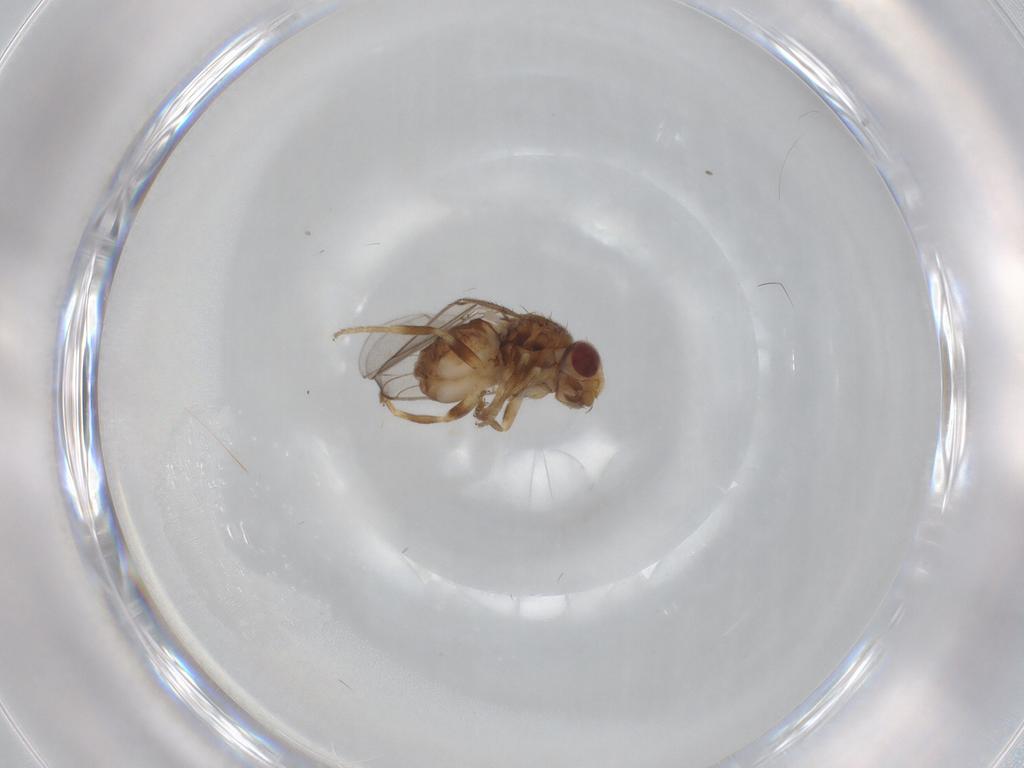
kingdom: Animalia
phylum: Arthropoda
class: Insecta
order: Diptera
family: Chloropidae
